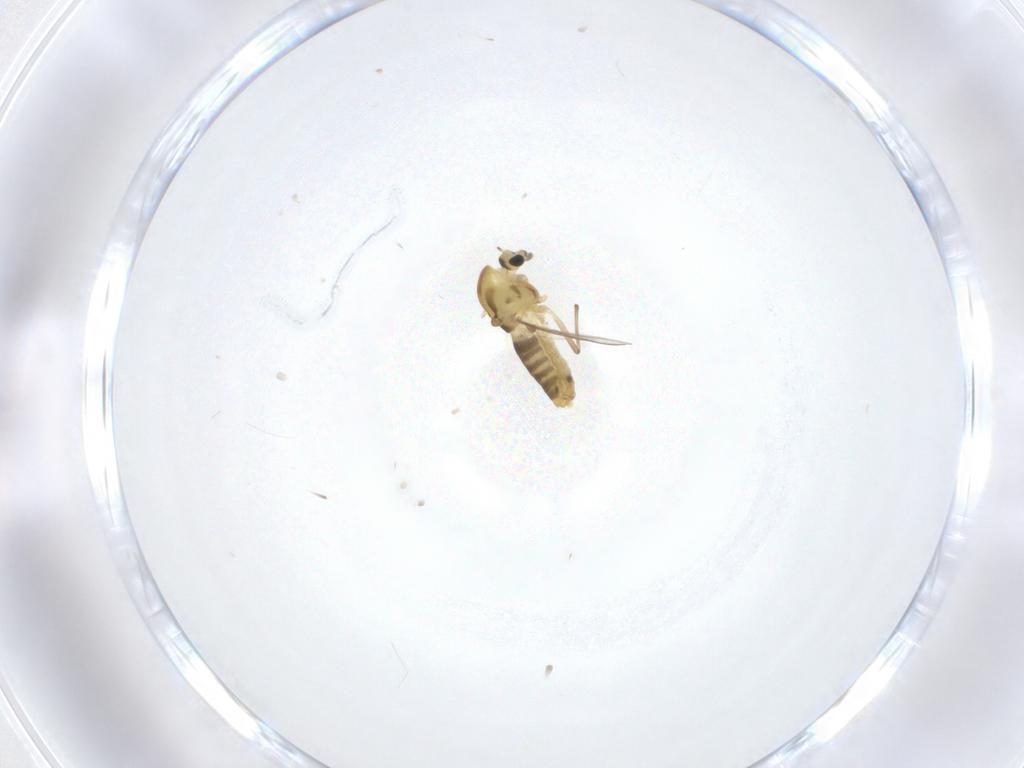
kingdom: Animalia
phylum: Arthropoda
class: Insecta
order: Diptera
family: Chironomidae
